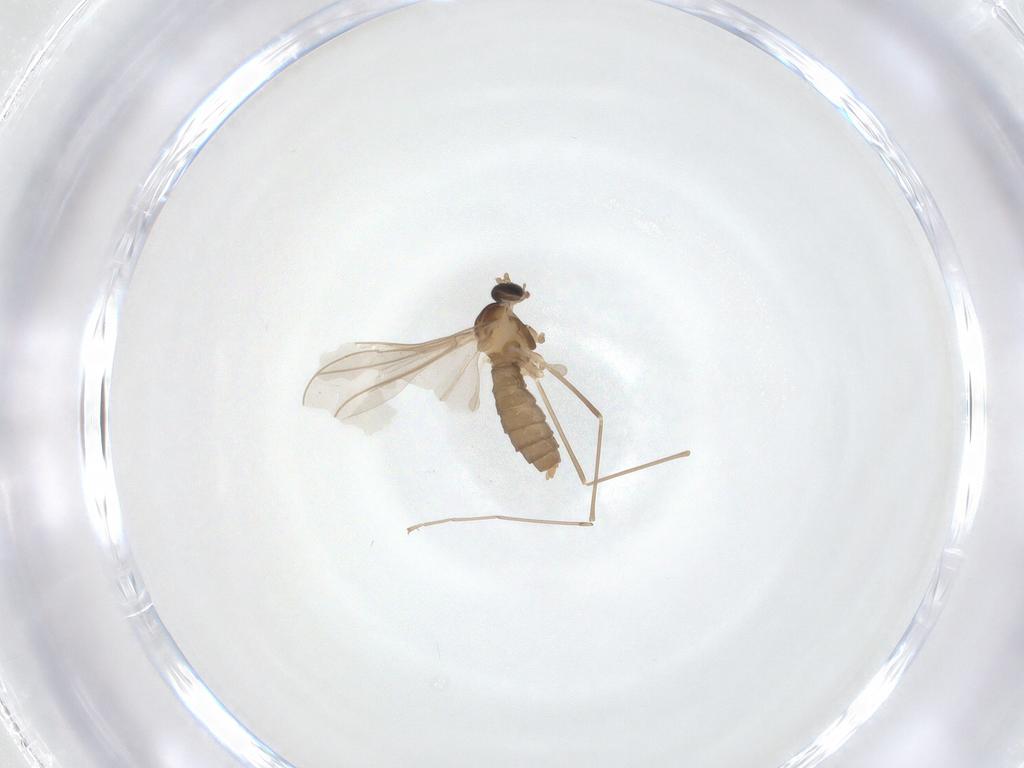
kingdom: Animalia
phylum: Arthropoda
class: Insecta
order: Diptera
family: Cecidomyiidae
